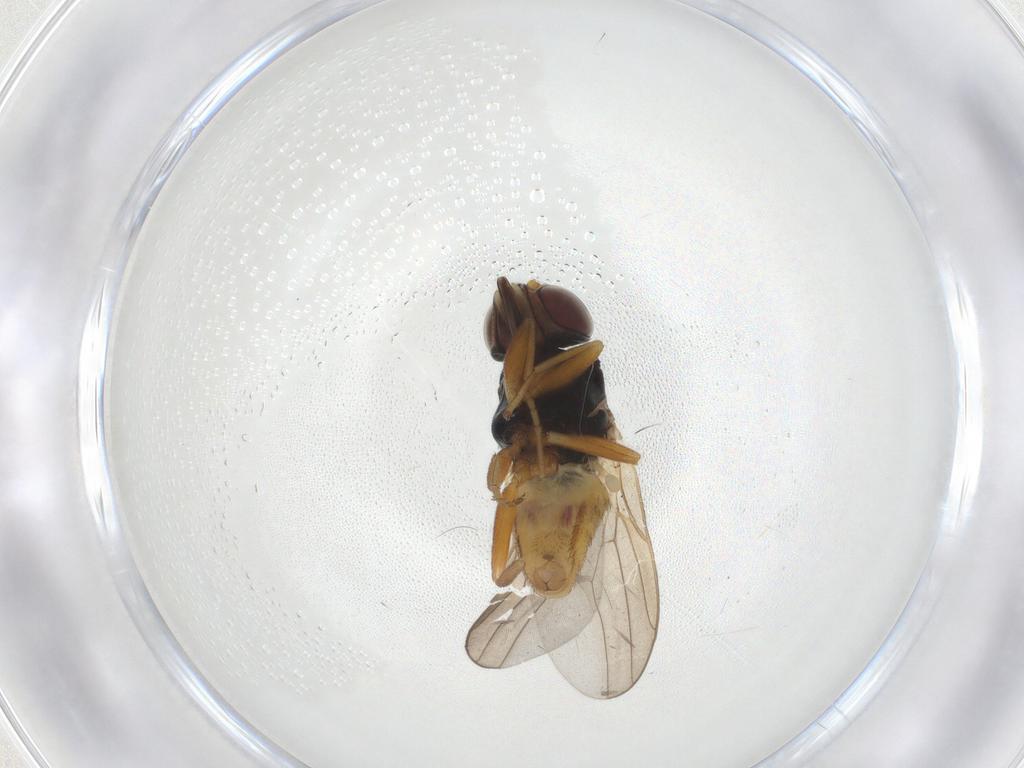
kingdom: Animalia
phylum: Arthropoda
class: Insecta
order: Diptera
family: Chloropidae
